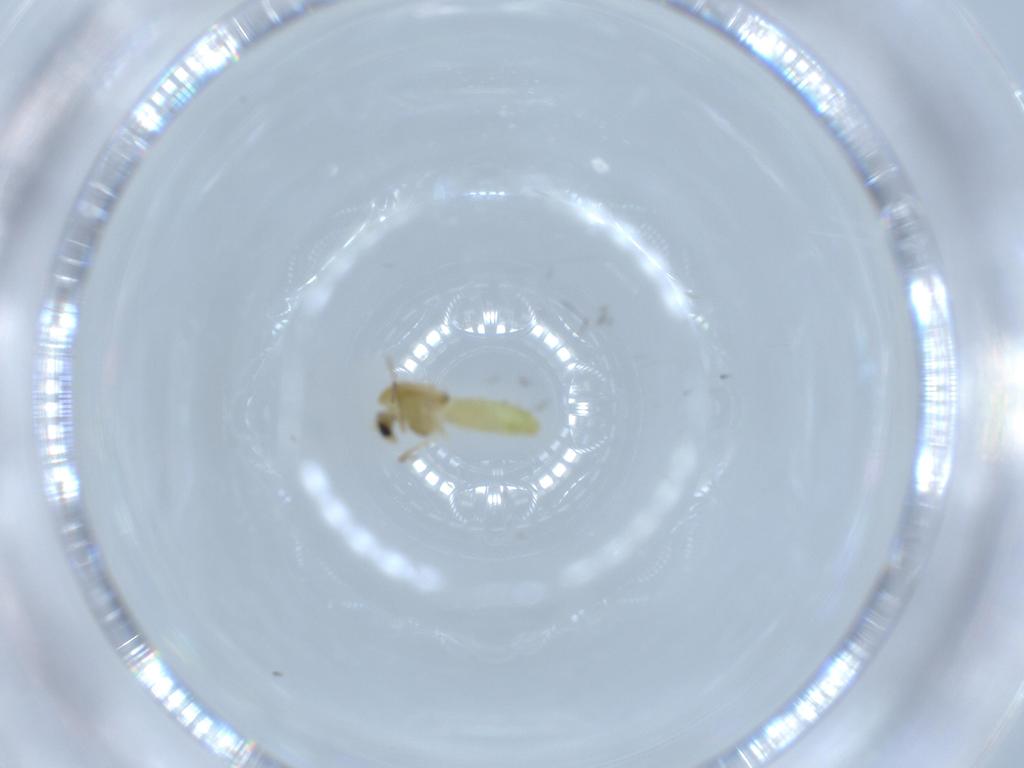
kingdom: Animalia
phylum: Arthropoda
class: Insecta
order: Diptera
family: Chironomidae
